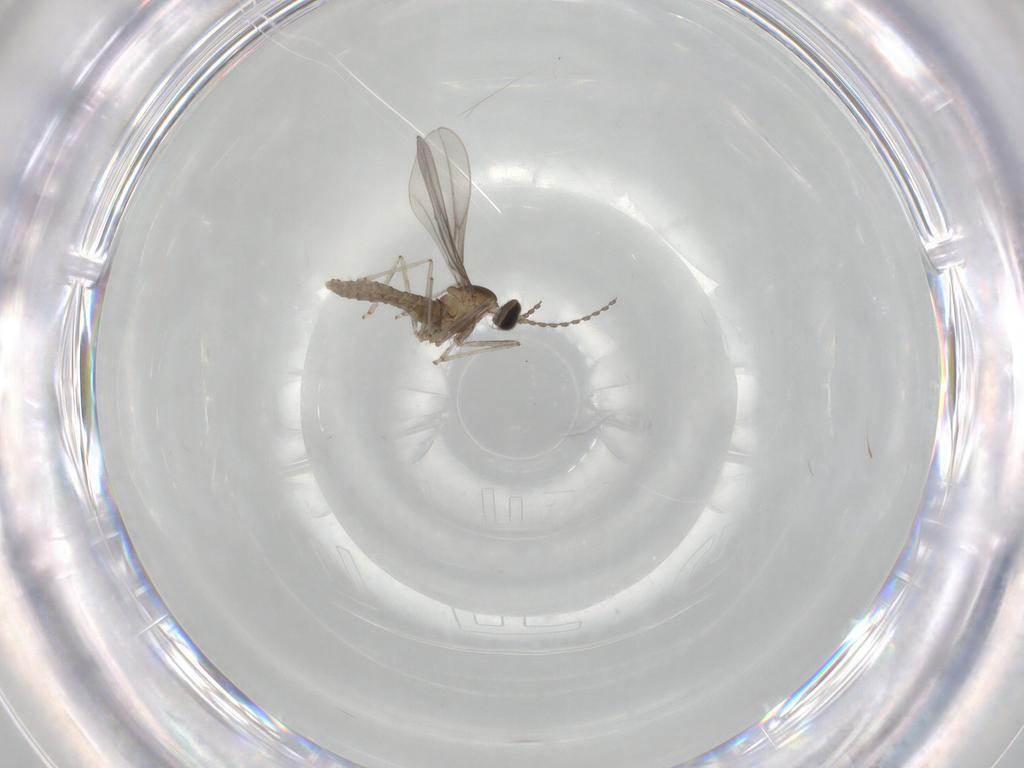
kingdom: Animalia
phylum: Arthropoda
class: Insecta
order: Diptera
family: Cecidomyiidae
